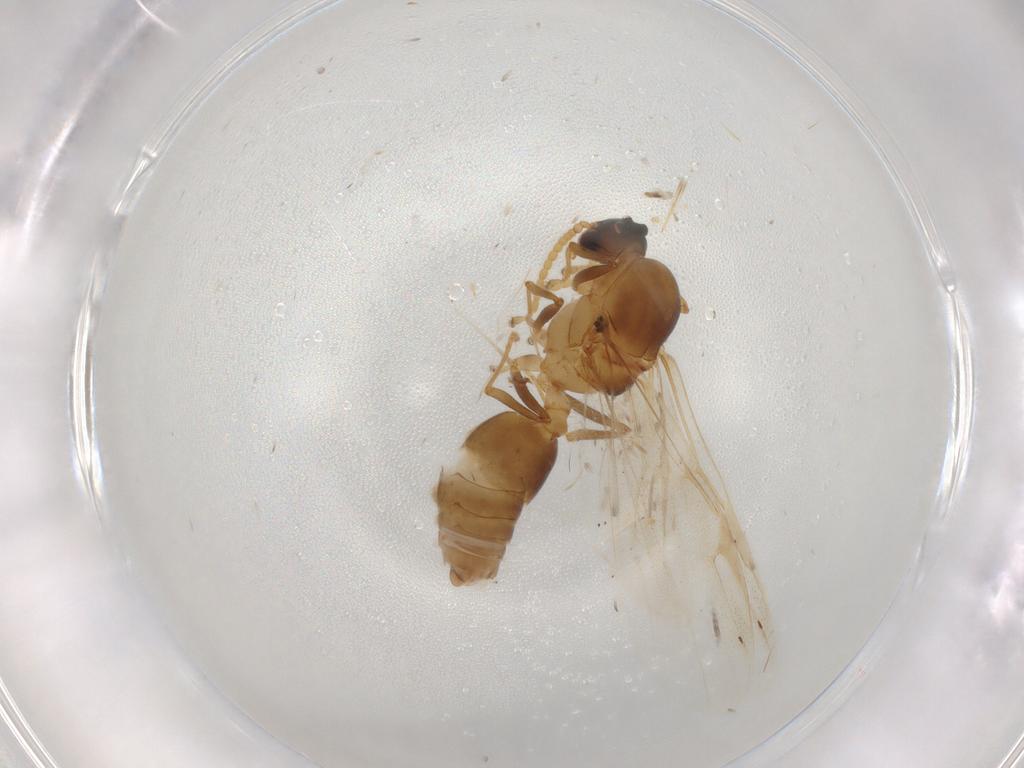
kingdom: Animalia
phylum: Arthropoda
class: Insecta
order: Hymenoptera
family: Formicidae
